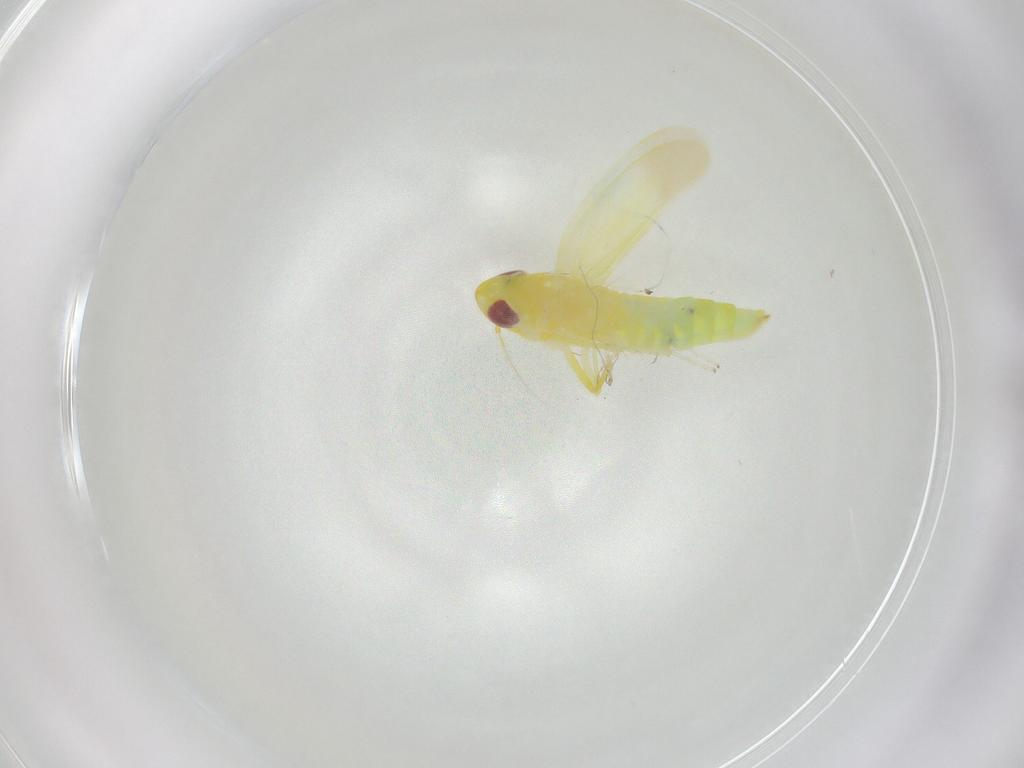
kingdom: Animalia
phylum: Arthropoda
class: Insecta
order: Hemiptera
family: Cicadellidae
